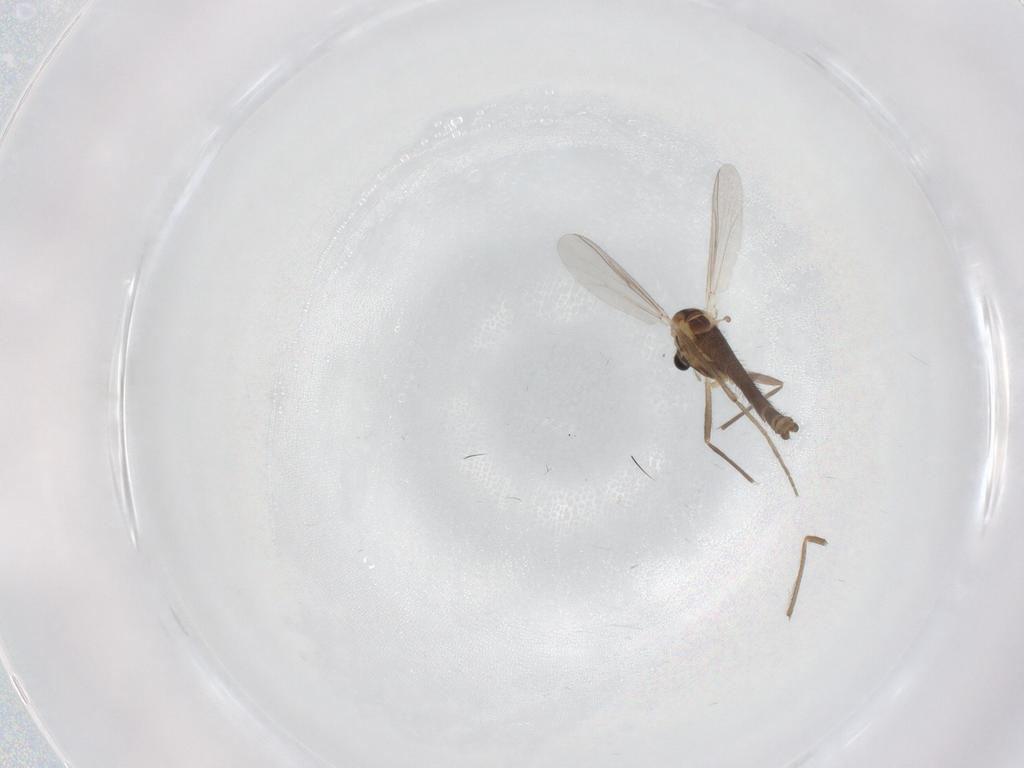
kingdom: Animalia
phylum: Arthropoda
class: Insecta
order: Diptera
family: Chironomidae
